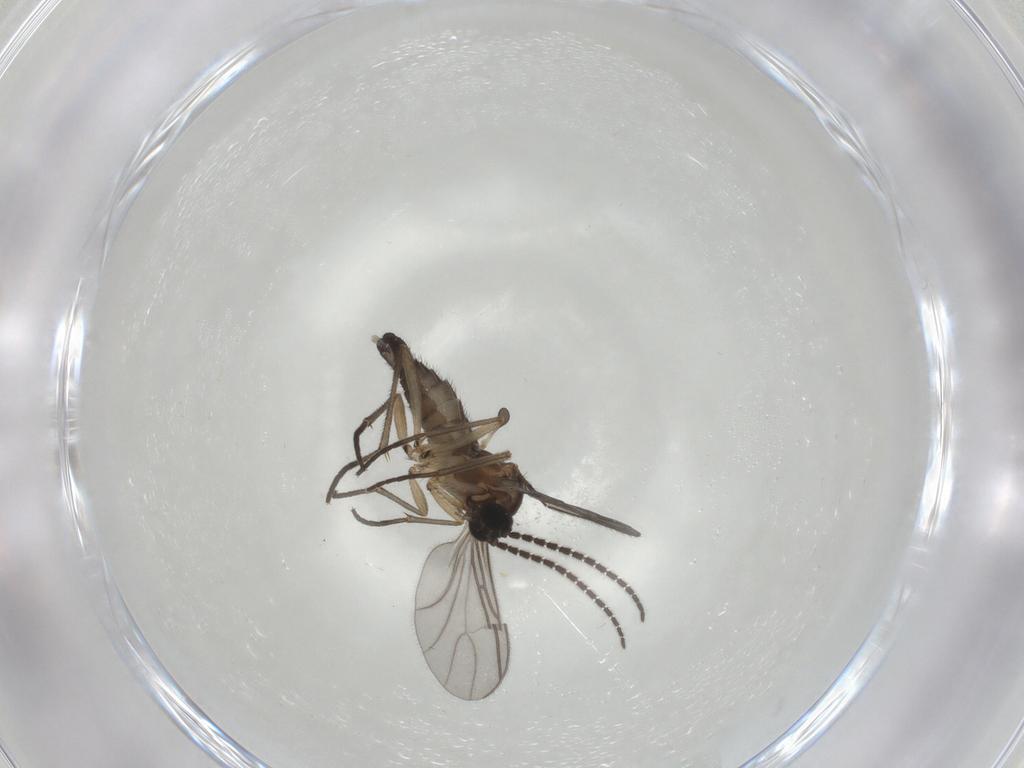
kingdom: Animalia
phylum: Arthropoda
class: Insecta
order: Diptera
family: Sciaridae
